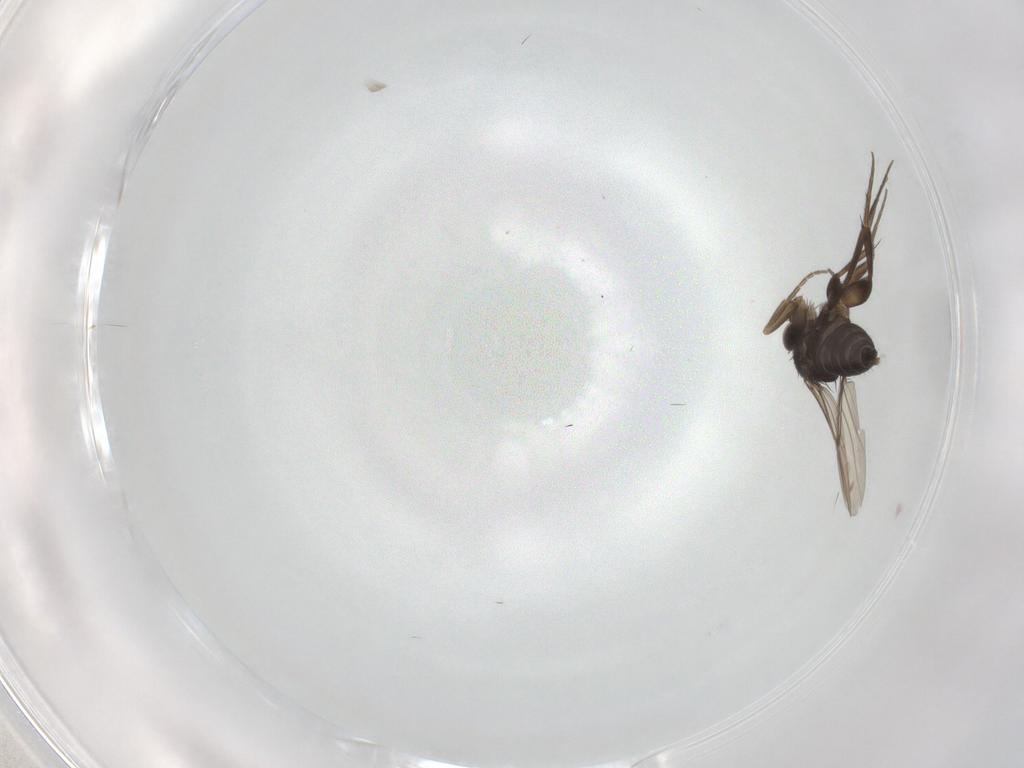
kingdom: Animalia
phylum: Arthropoda
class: Insecta
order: Diptera
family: Phoridae
